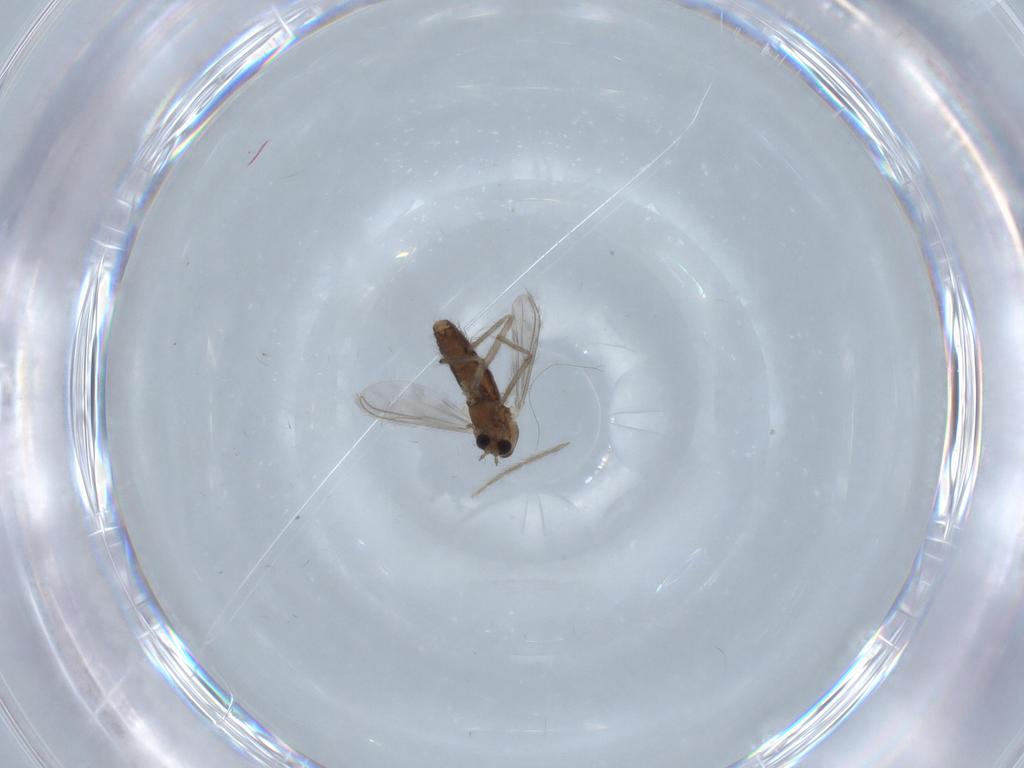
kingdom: Animalia
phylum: Arthropoda
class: Insecta
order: Diptera
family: Chironomidae
